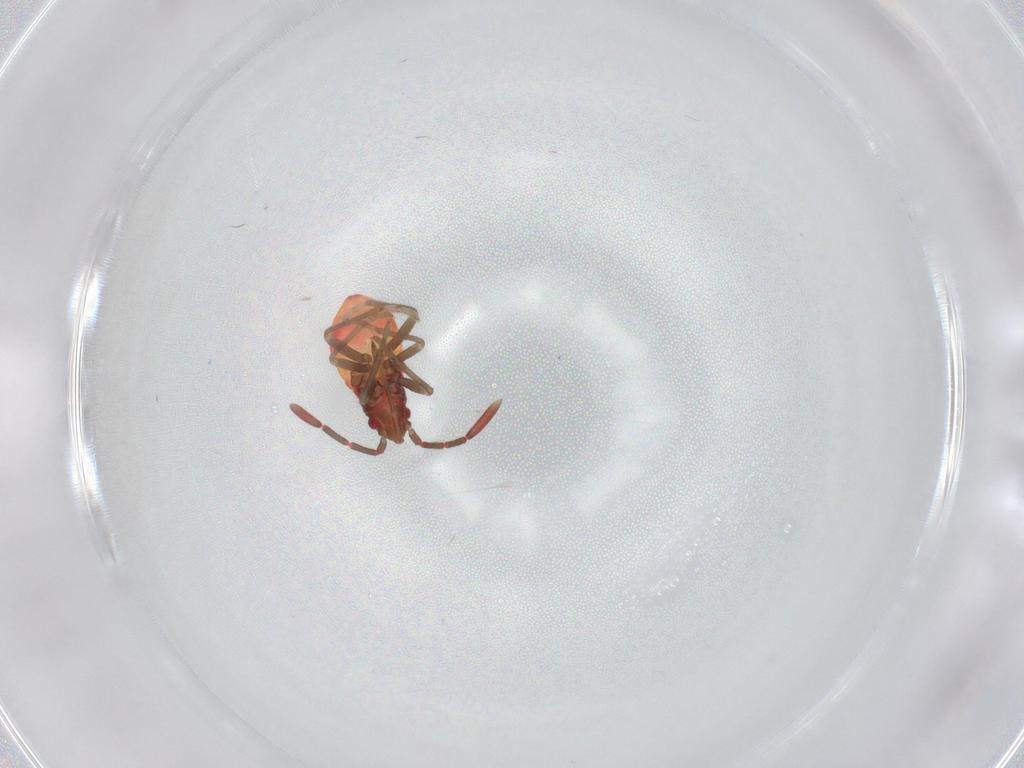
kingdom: Animalia
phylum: Arthropoda
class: Insecta
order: Hemiptera
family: Rhyparochromidae
